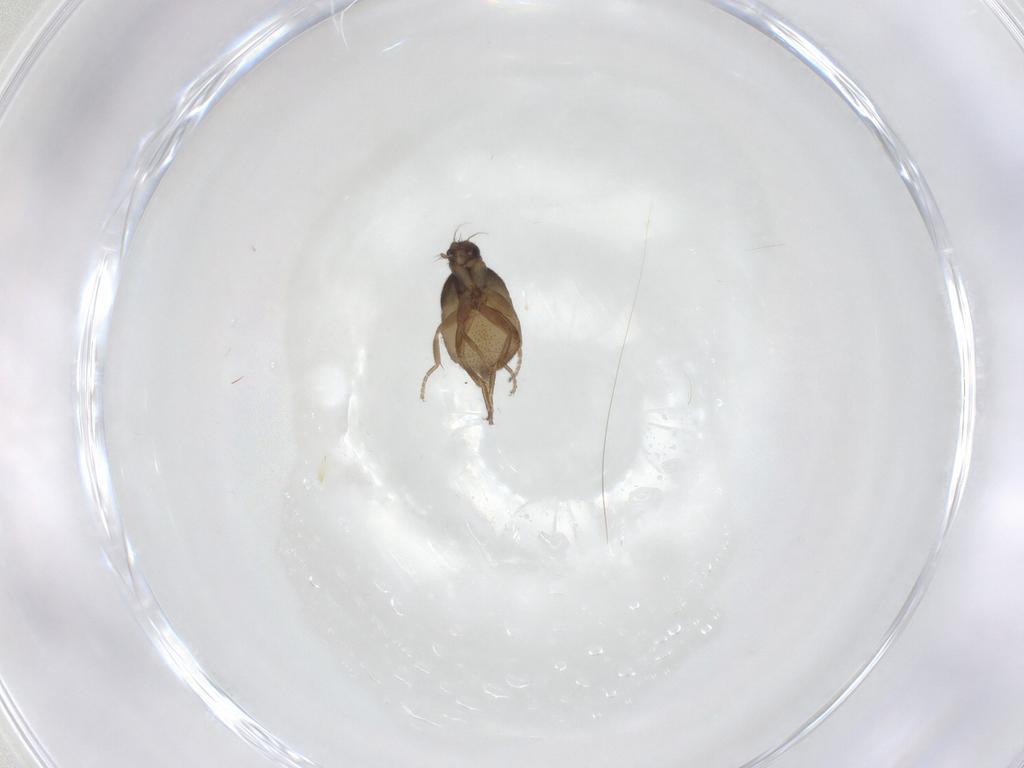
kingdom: Animalia
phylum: Arthropoda
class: Insecta
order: Diptera
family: Phoridae
